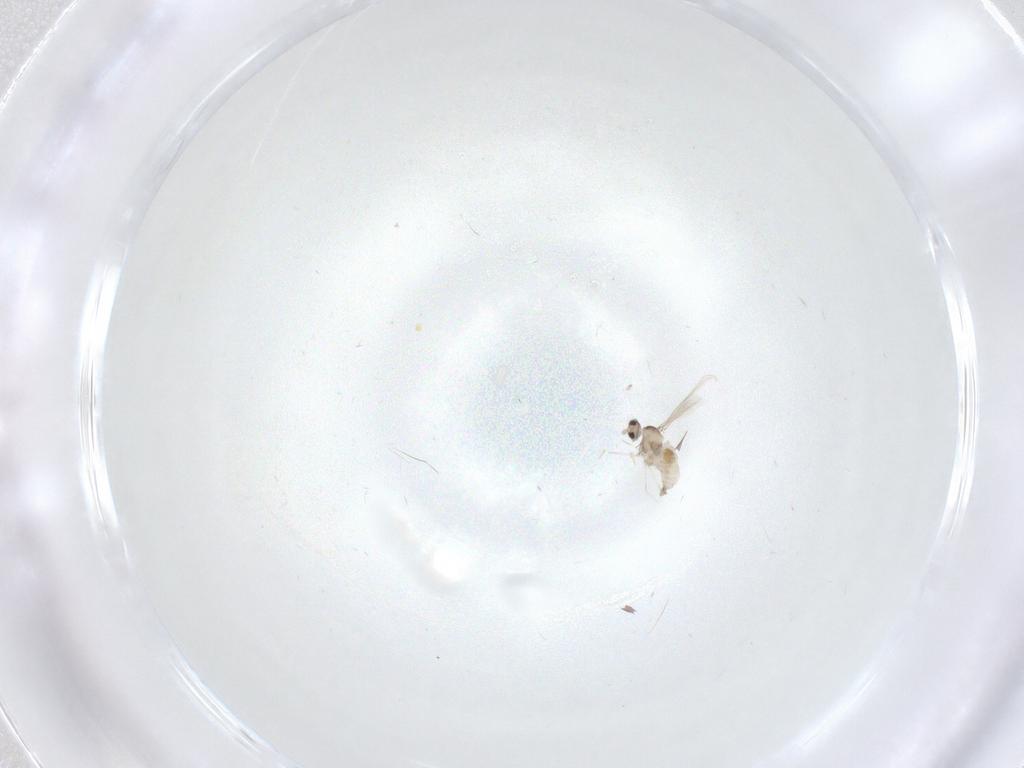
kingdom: Animalia
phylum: Arthropoda
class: Insecta
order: Diptera
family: Cecidomyiidae
